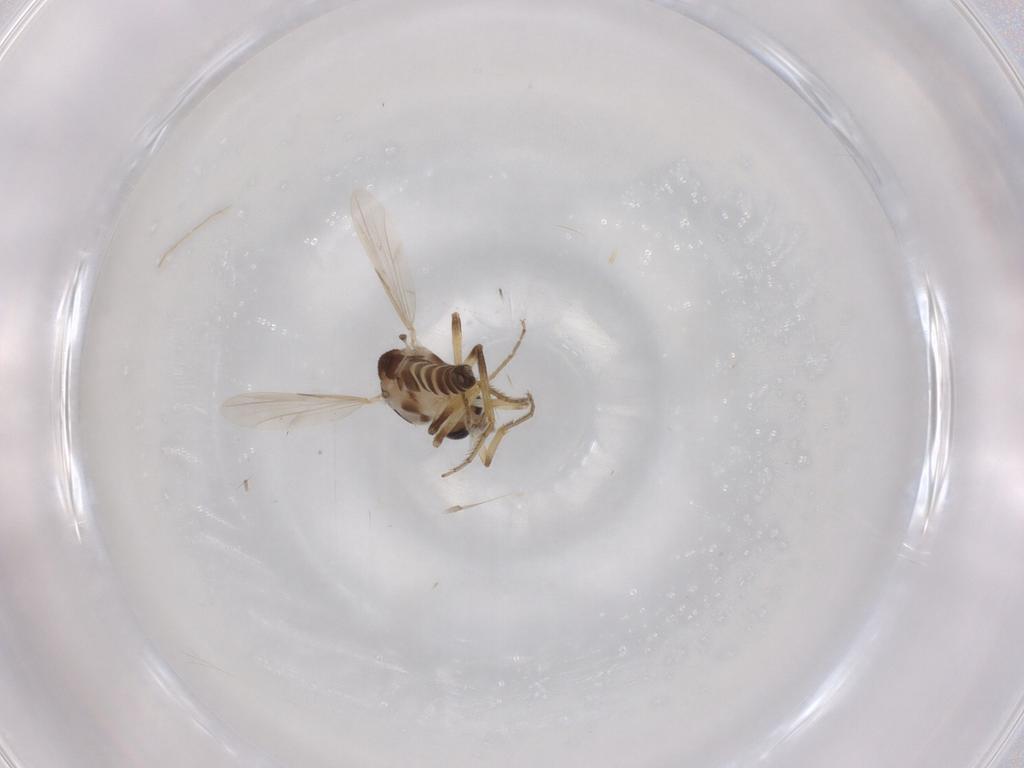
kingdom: Animalia
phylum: Arthropoda
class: Insecta
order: Diptera
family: Ceratopogonidae
